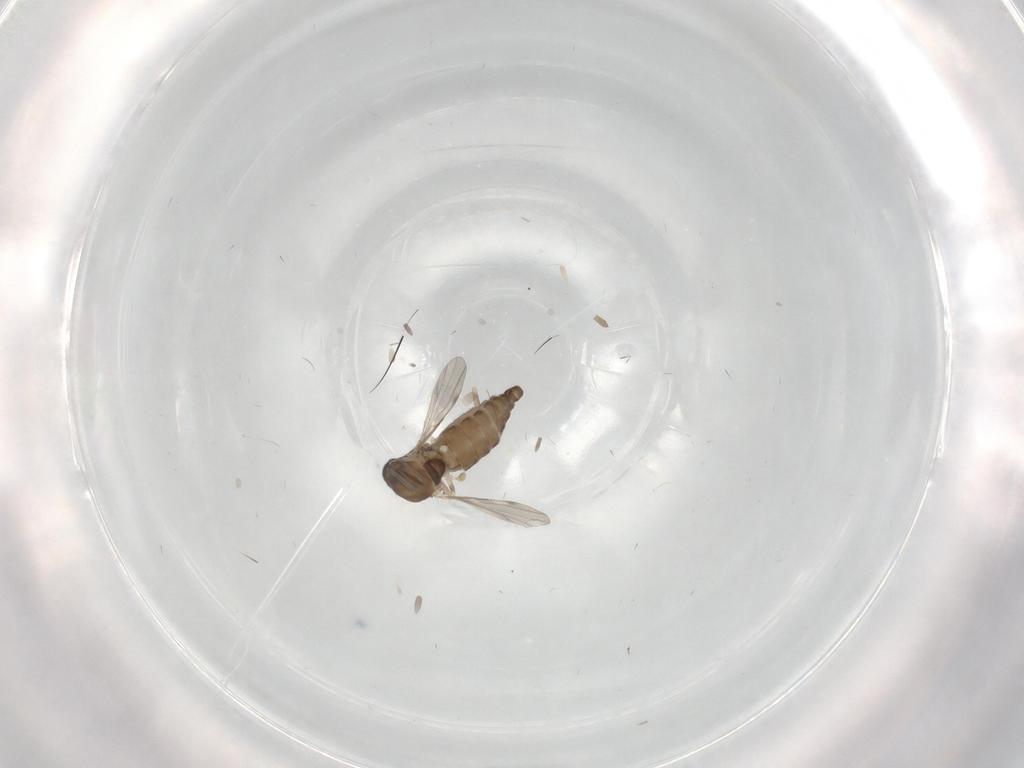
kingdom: Animalia
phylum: Arthropoda
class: Insecta
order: Diptera
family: Ceratopogonidae
